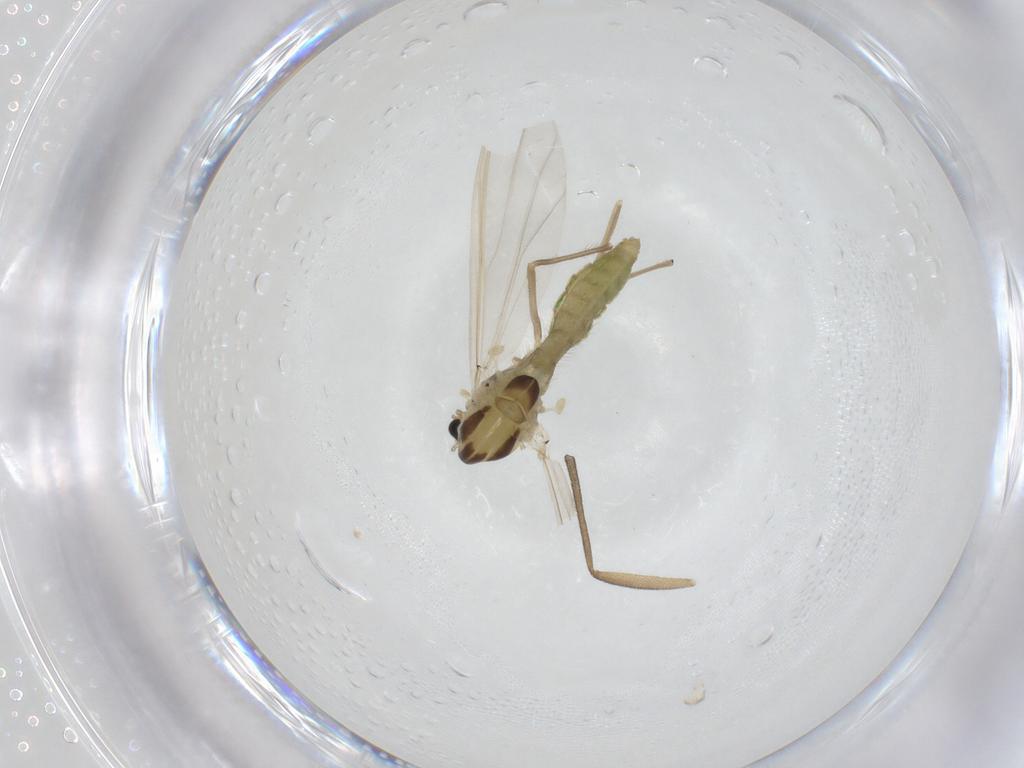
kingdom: Animalia
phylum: Arthropoda
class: Insecta
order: Diptera
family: Chironomidae
